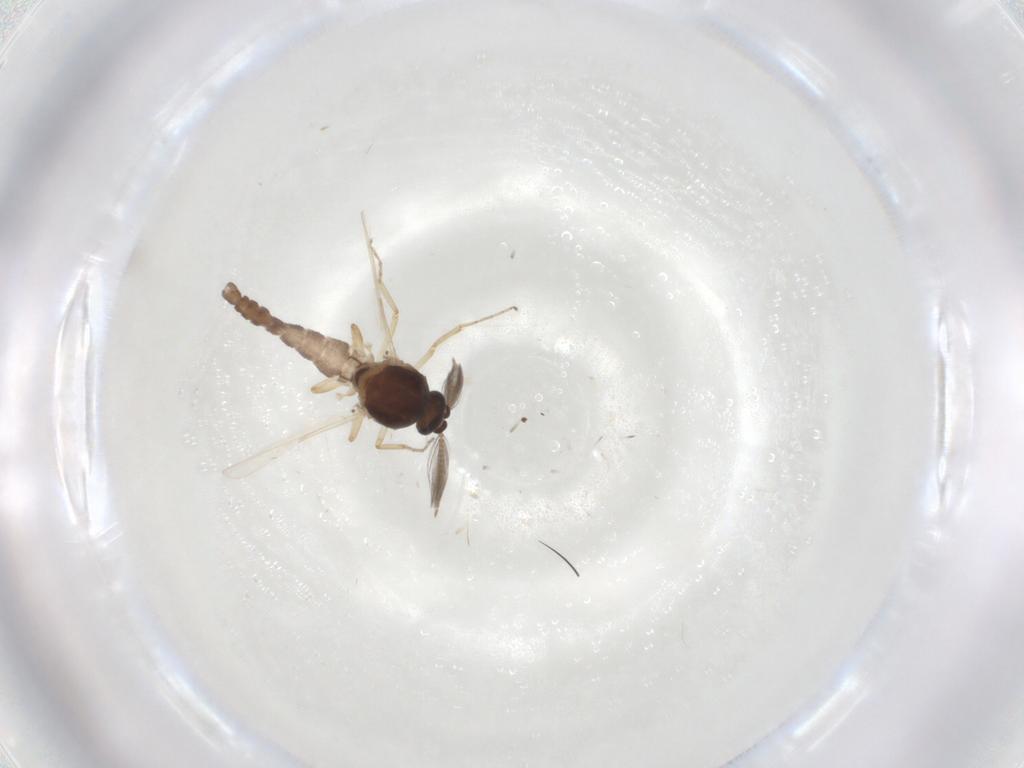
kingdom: Animalia
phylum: Arthropoda
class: Insecta
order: Diptera
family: Ceratopogonidae
